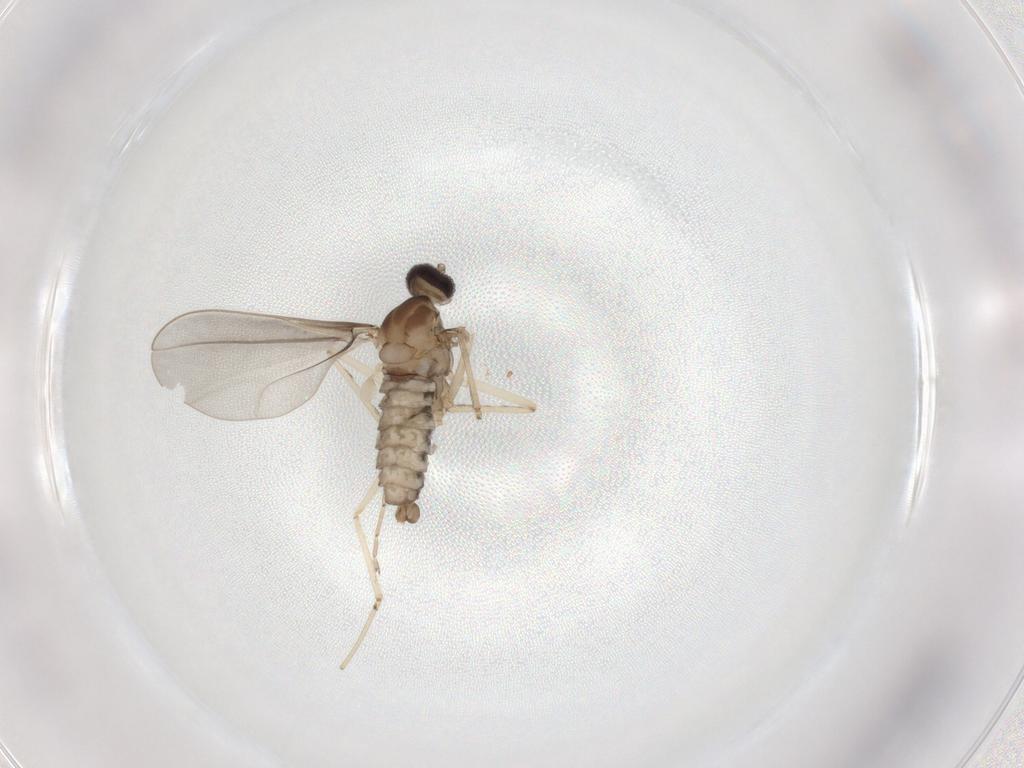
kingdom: Animalia
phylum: Arthropoda
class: Insecta
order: Diptera
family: Cecidomyiidae
